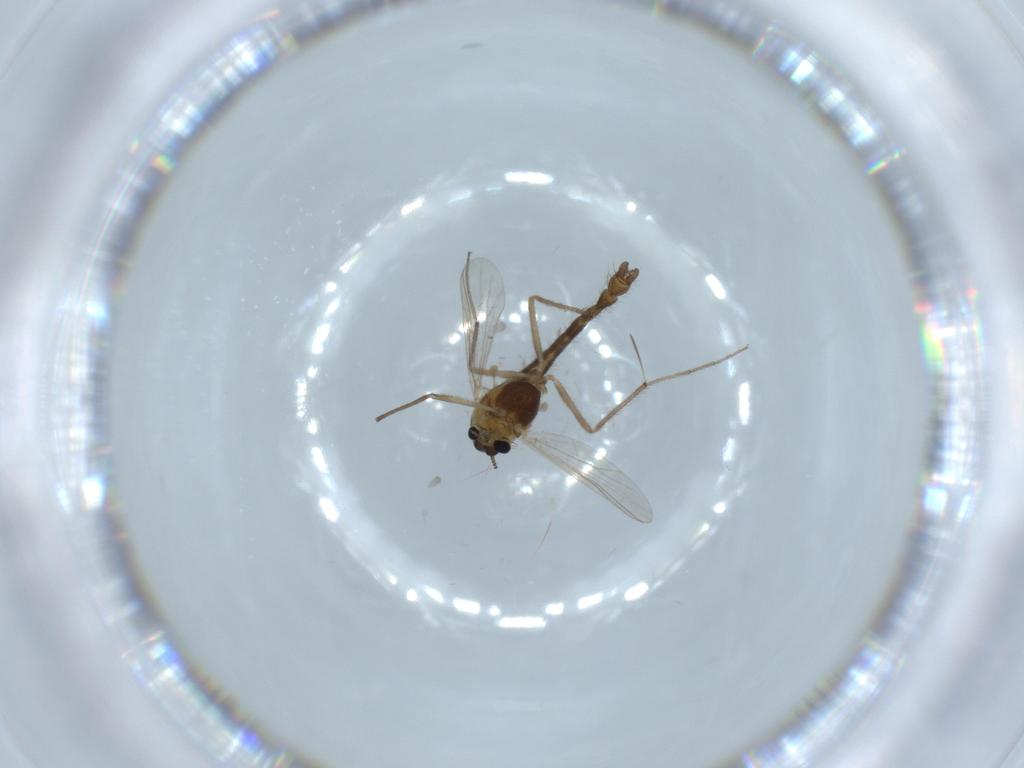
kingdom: Animalia
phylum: Arthropoda
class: Insecta
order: Diptera
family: Chironomidae
